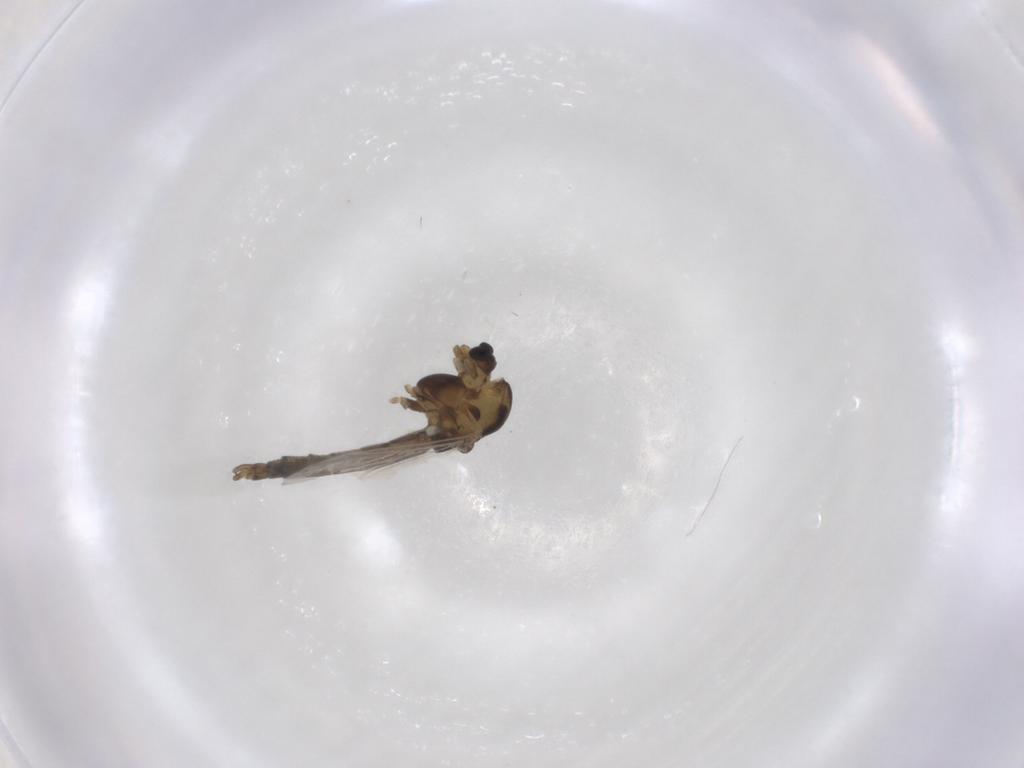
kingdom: Animalia
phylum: Arthropoda
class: Insecta
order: Diptera
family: Chironomidae
